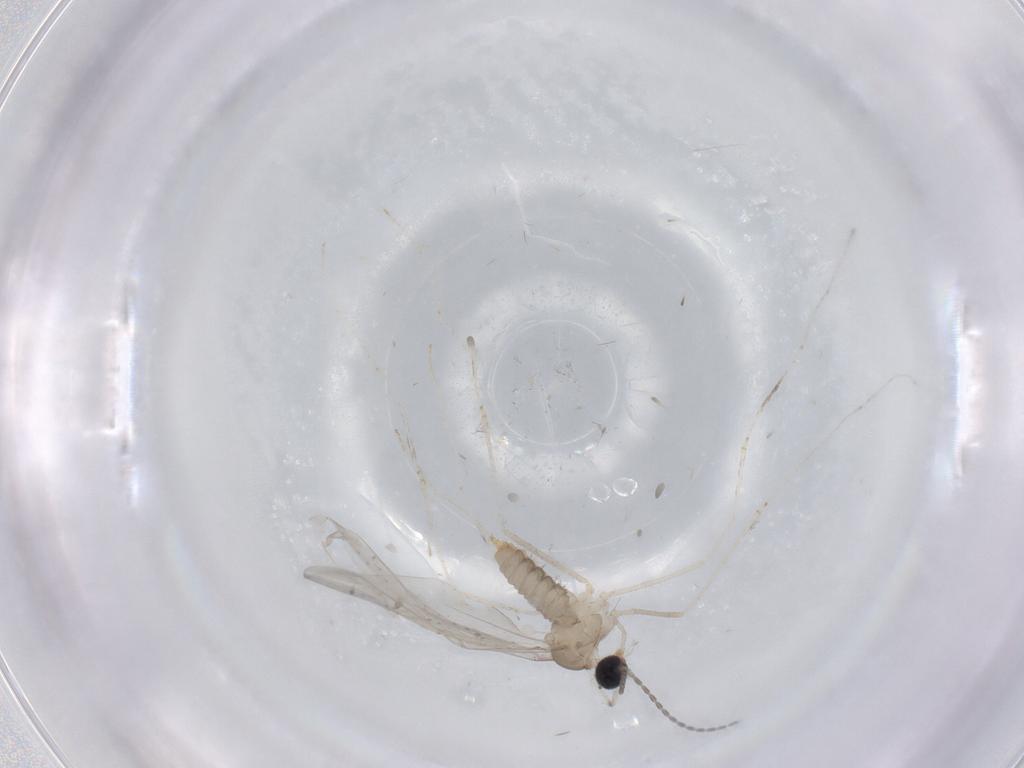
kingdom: Animalia
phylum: Arthropoda
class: Insecta
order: Diptera
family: Cecidomyiidae
